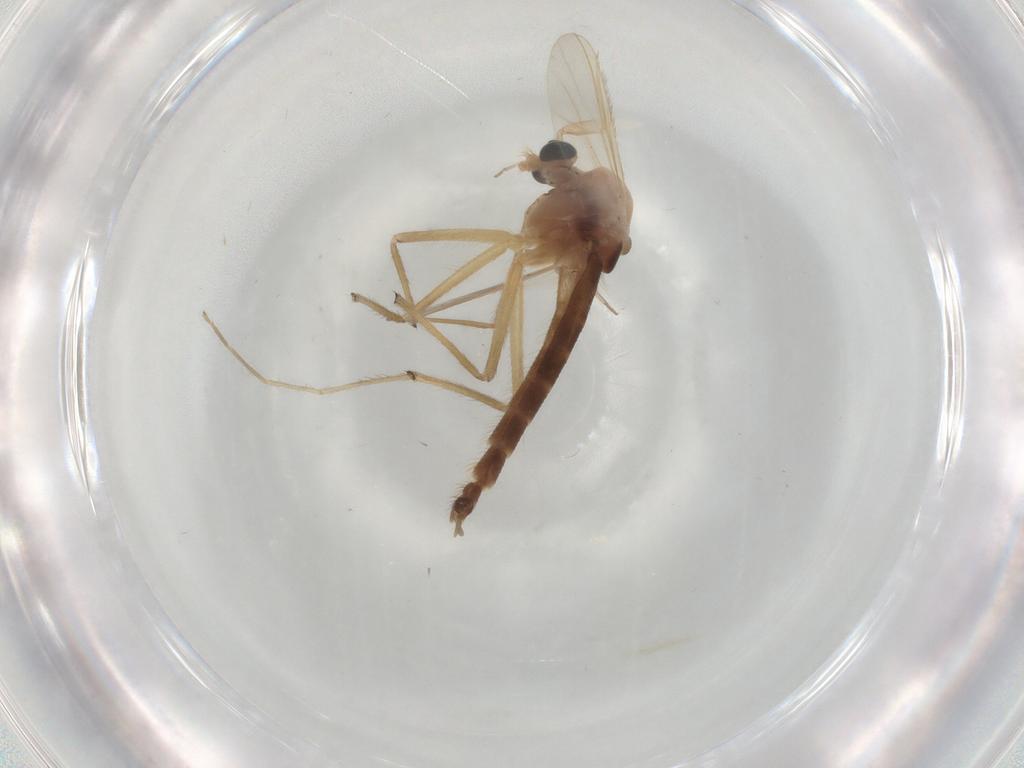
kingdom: Animalia
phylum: Arthropoda
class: Insecta
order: Diptera
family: Chironomidae
